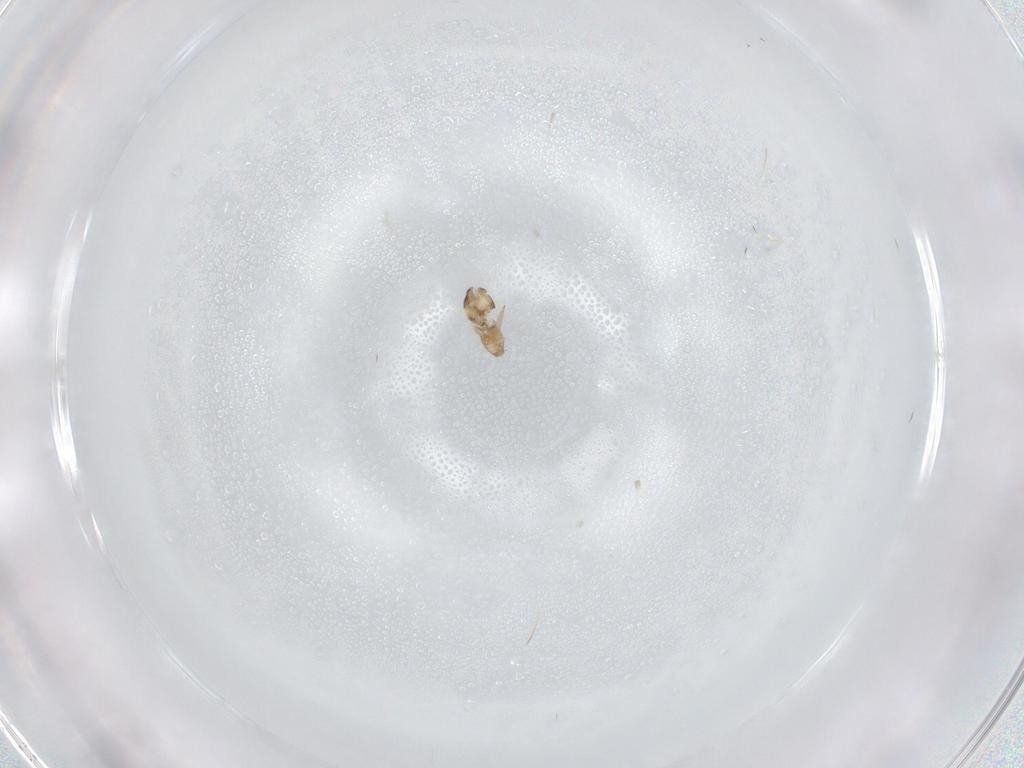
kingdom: Animalia
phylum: Arthropoda
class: Insecta
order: Diptera
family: Cecidomyiidae
